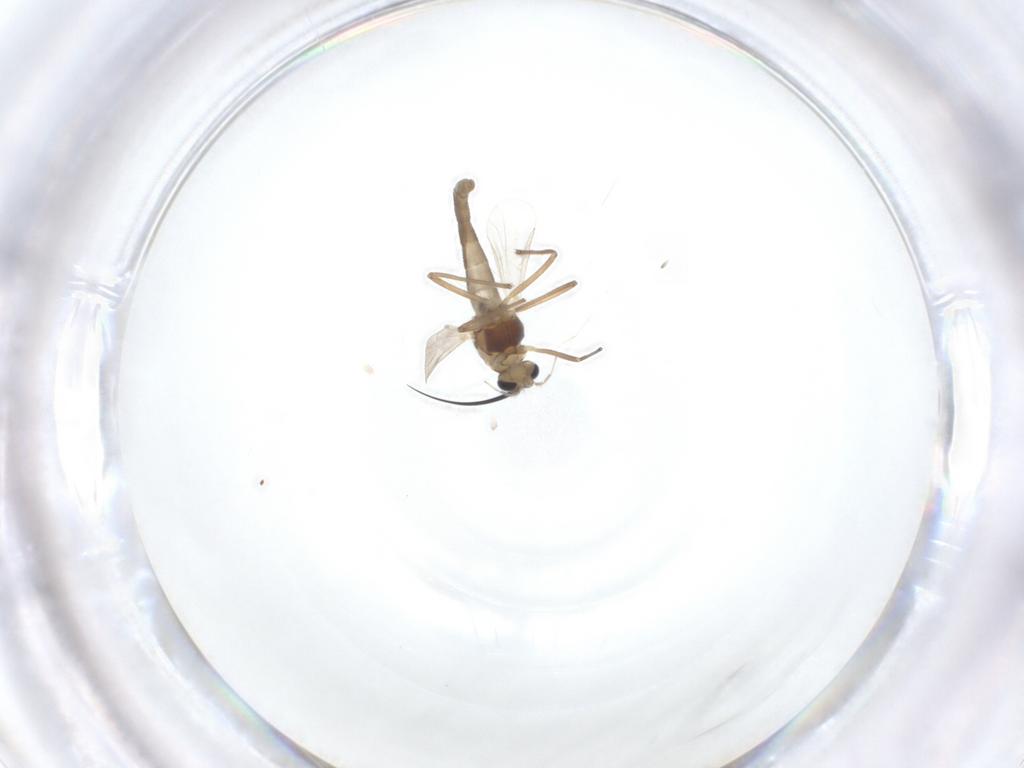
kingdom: Animalia
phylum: Arthropoda
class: Insecta
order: Diptera
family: Chironomidae
